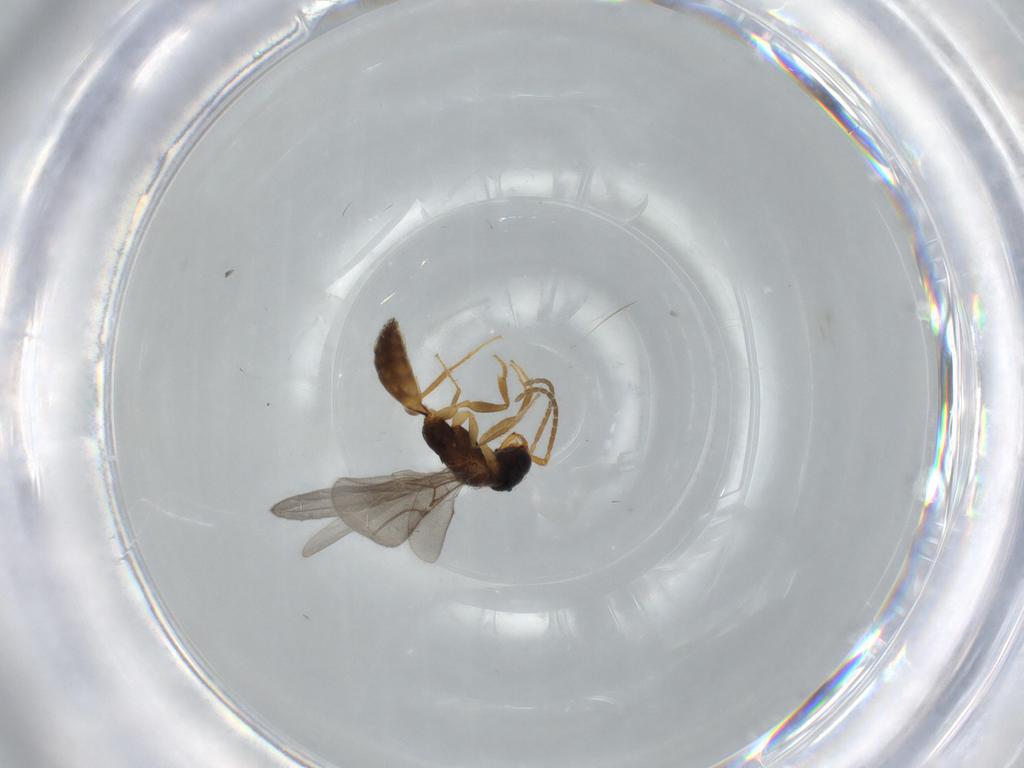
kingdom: Animalia
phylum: Arthropoda
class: Insecta
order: Hymenoptera
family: Bethylidae
